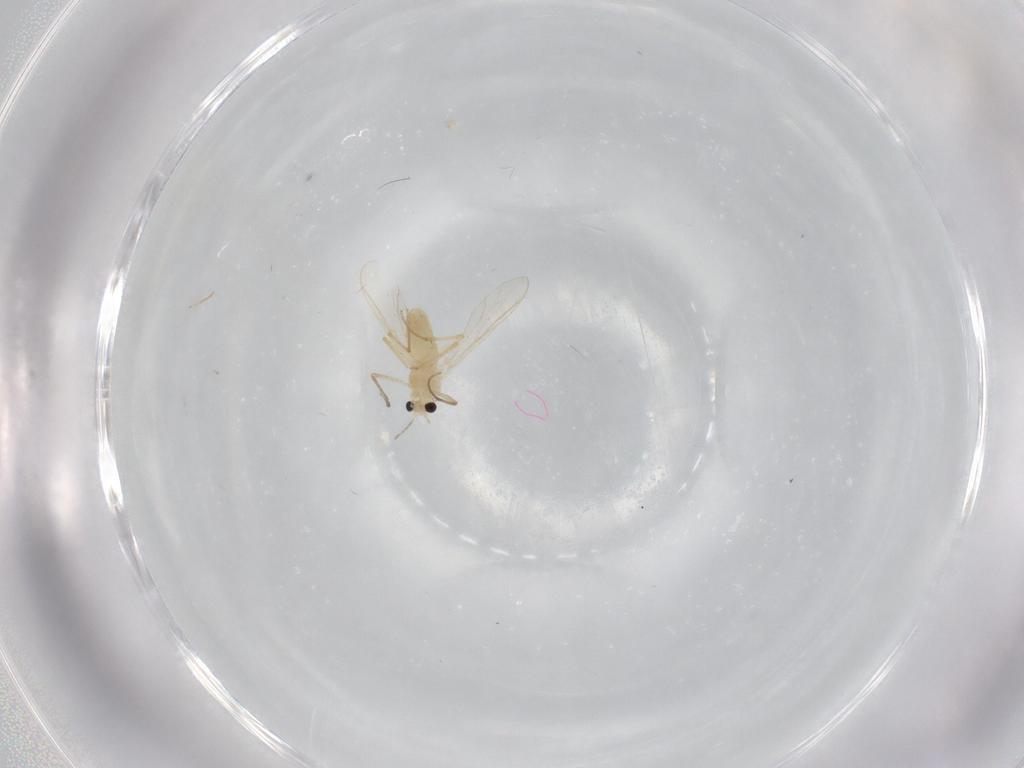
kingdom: Animalia
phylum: Arthropoda
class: Insecta
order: Diptera
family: Chironomidae
